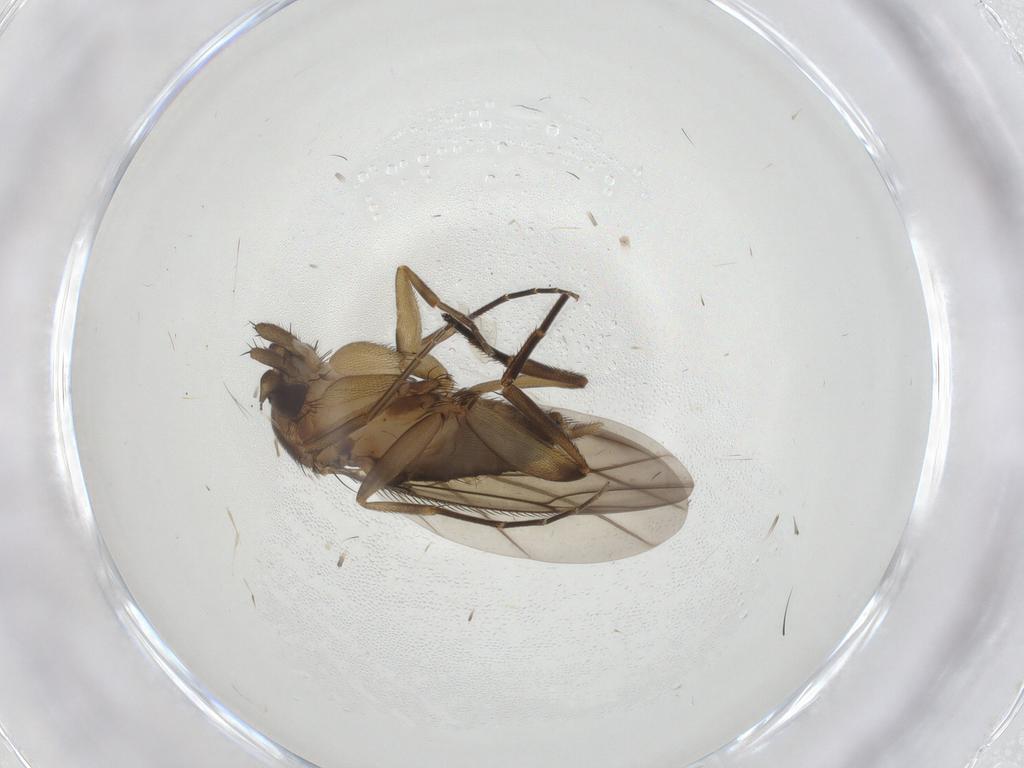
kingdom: Animalia
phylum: Arthropoda
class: Insecta
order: Diptera
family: Phoridae
